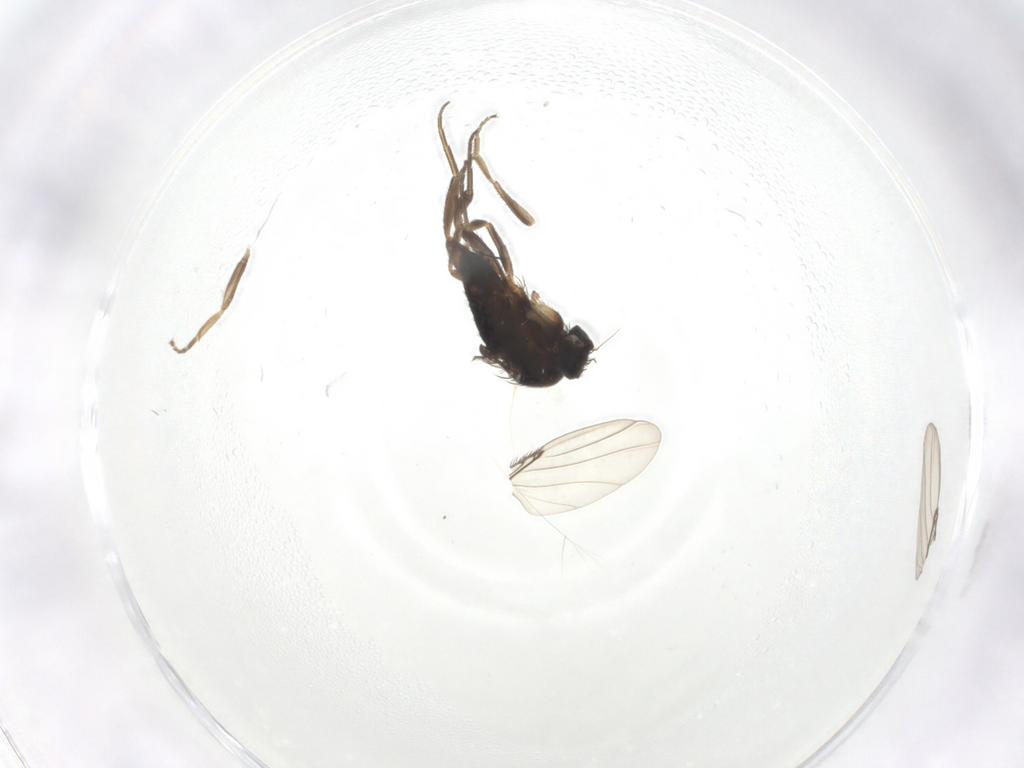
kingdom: Animalia
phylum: Arthropoda
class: Insecta
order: Diptera
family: Phoridae
